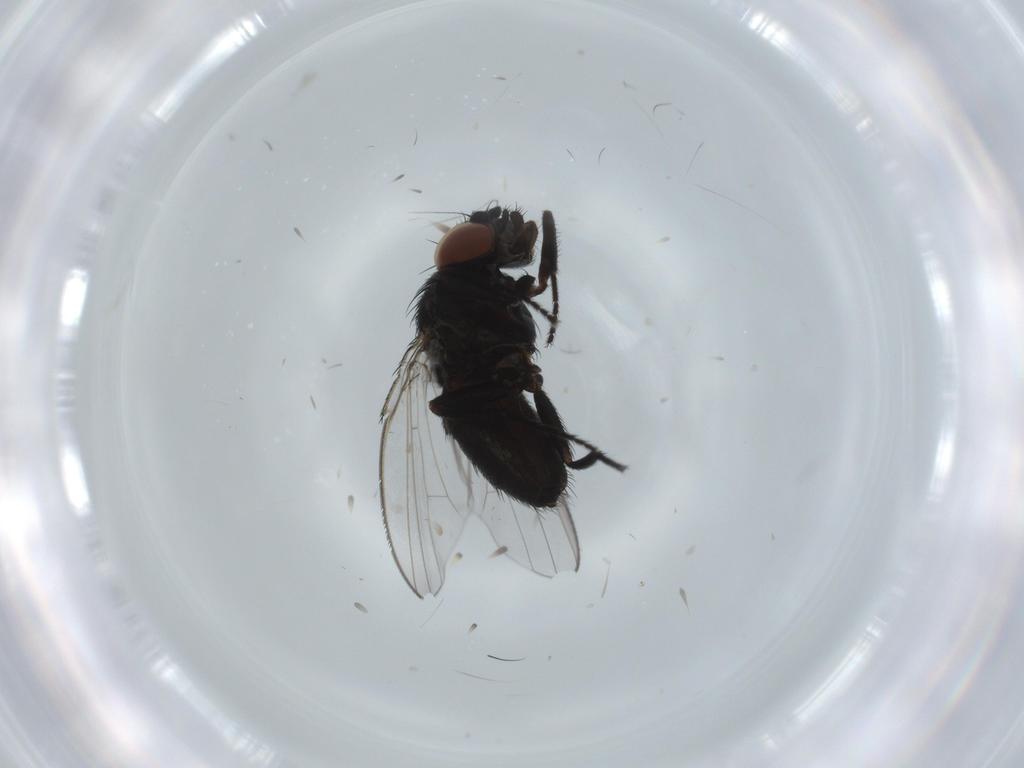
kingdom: Animalia
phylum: Arthropoda
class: Insecta
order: Diptera
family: Milichiidae
